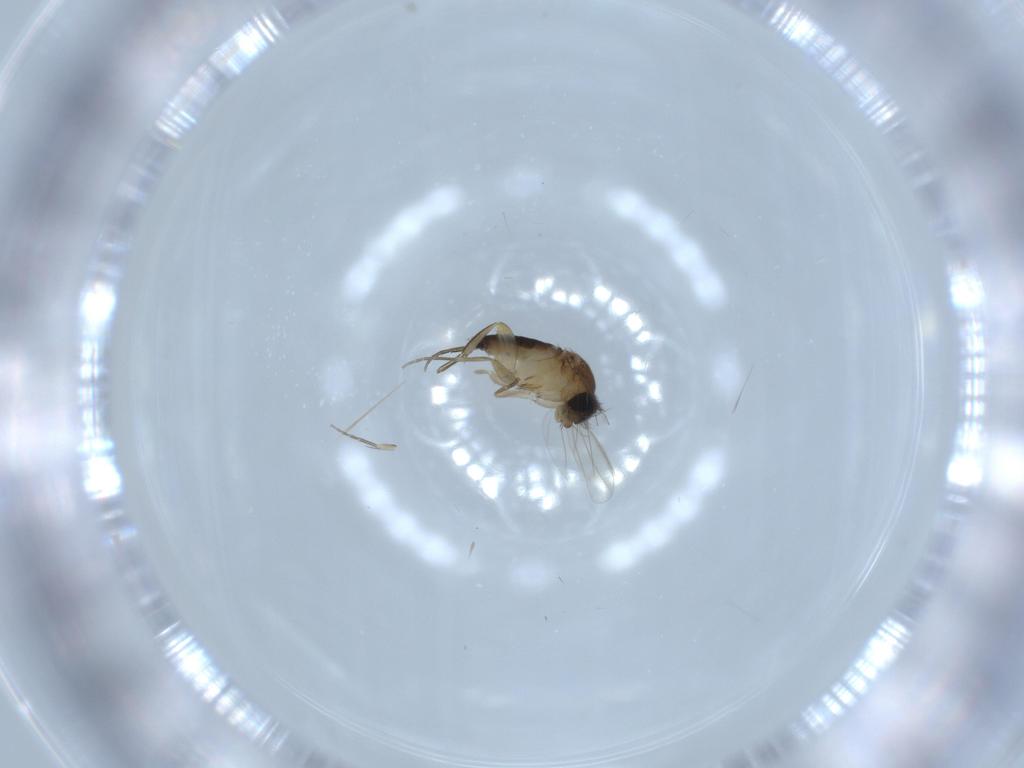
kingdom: Animalia
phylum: Arthropoda
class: Insecta
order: Diptera
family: Phoridae
